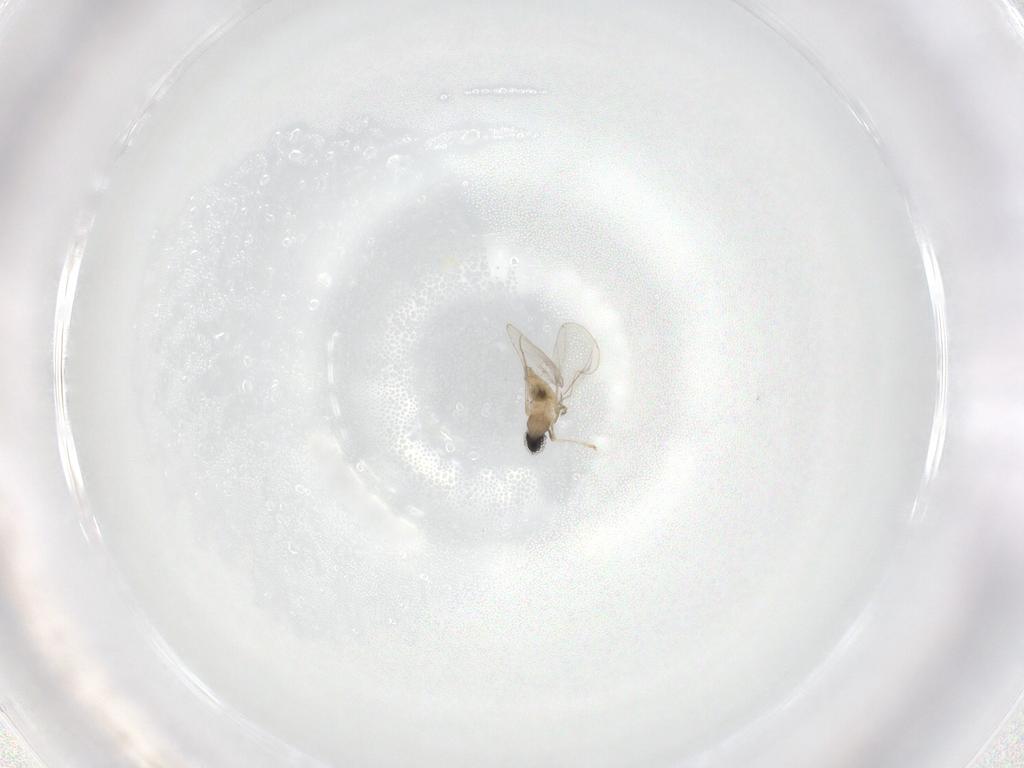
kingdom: Animalia
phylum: Arthropoda
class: Insecta
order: Diptera
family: Cecidomyiidae
